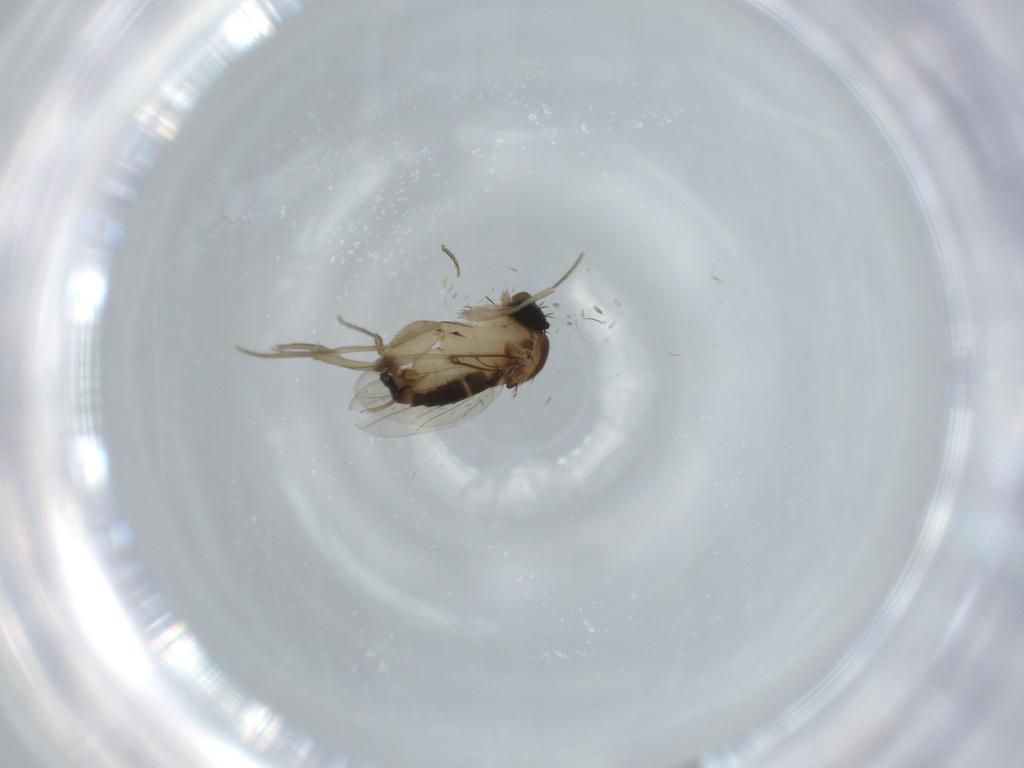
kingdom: Animalia
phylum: Arthropoda
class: Insecta
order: Diptera
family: Phoridae
